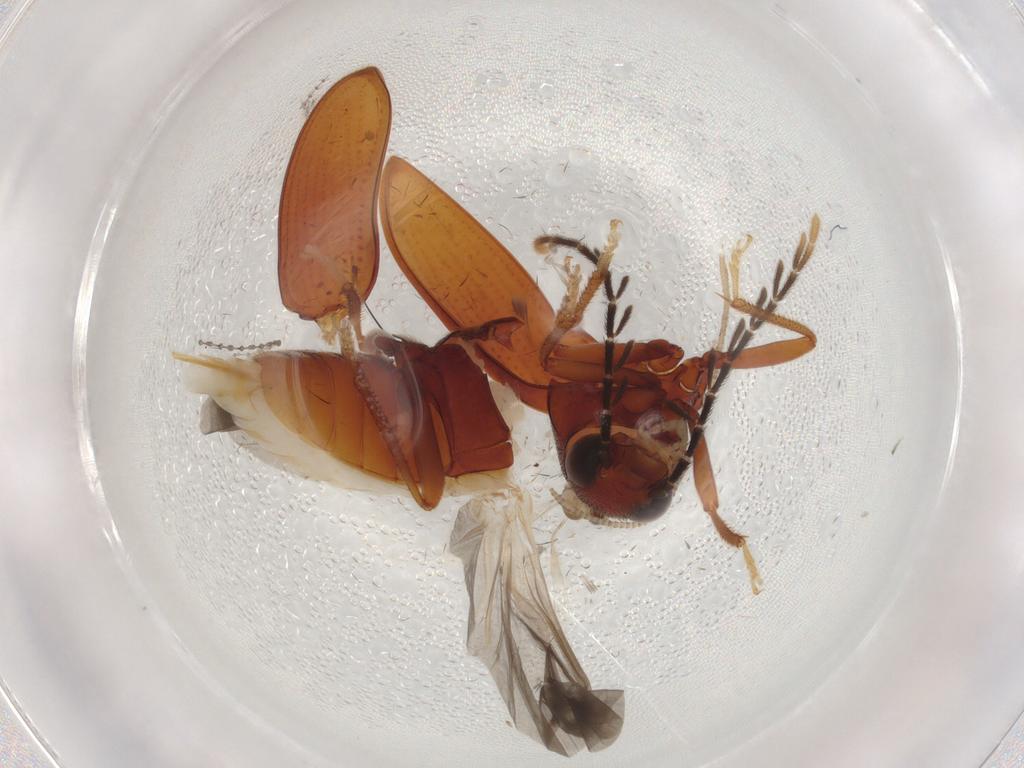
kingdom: Animalia
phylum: Arthropoda
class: Insecta
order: Coleoptera
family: Ptilodactylidae
